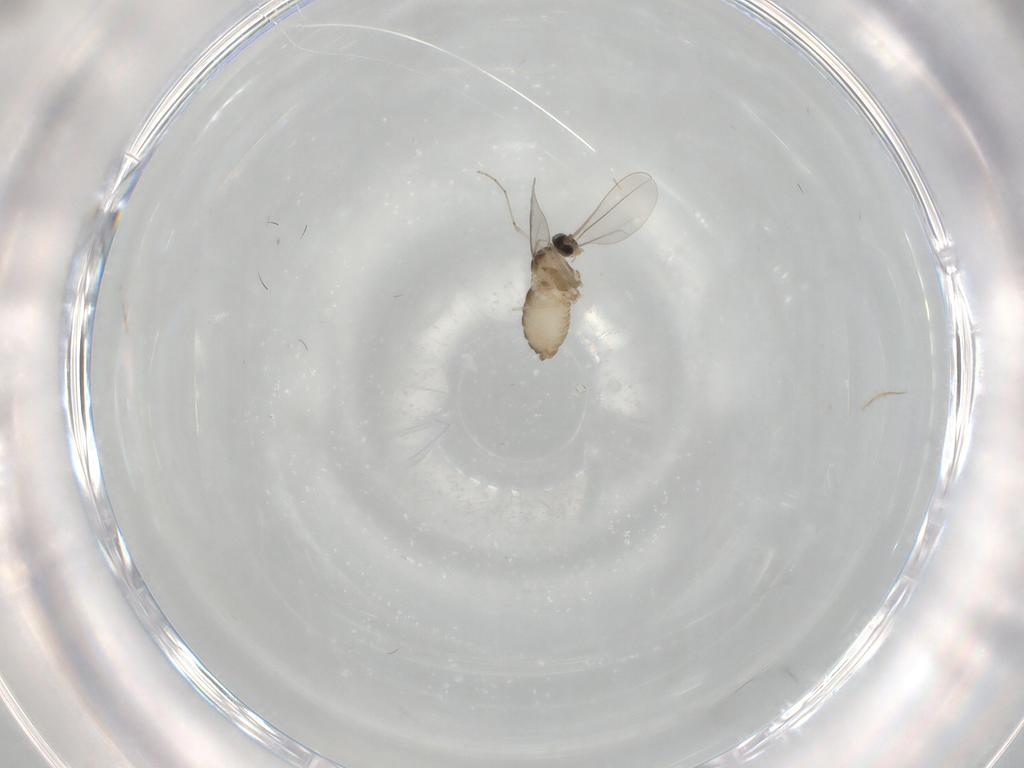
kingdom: Animalia
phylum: Arthropoda
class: Insecta
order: Diptera
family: Cecidomyiidae
